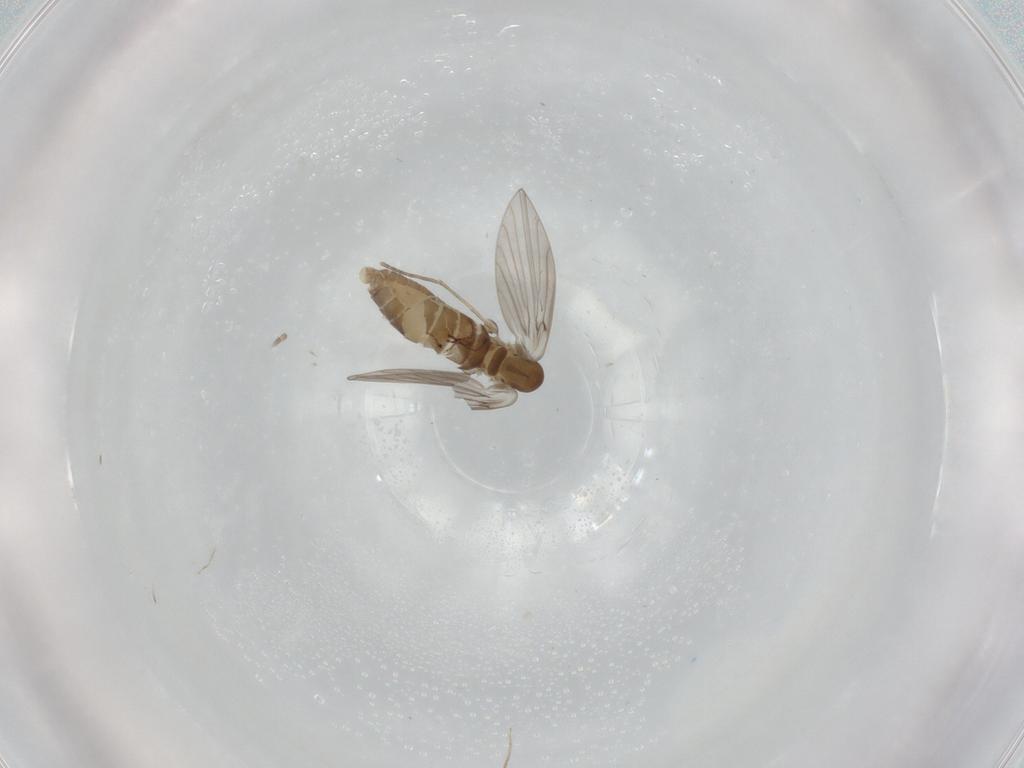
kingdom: Animalia
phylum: Arthropoda
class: Insecta
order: Diptera
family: Psychodidae
